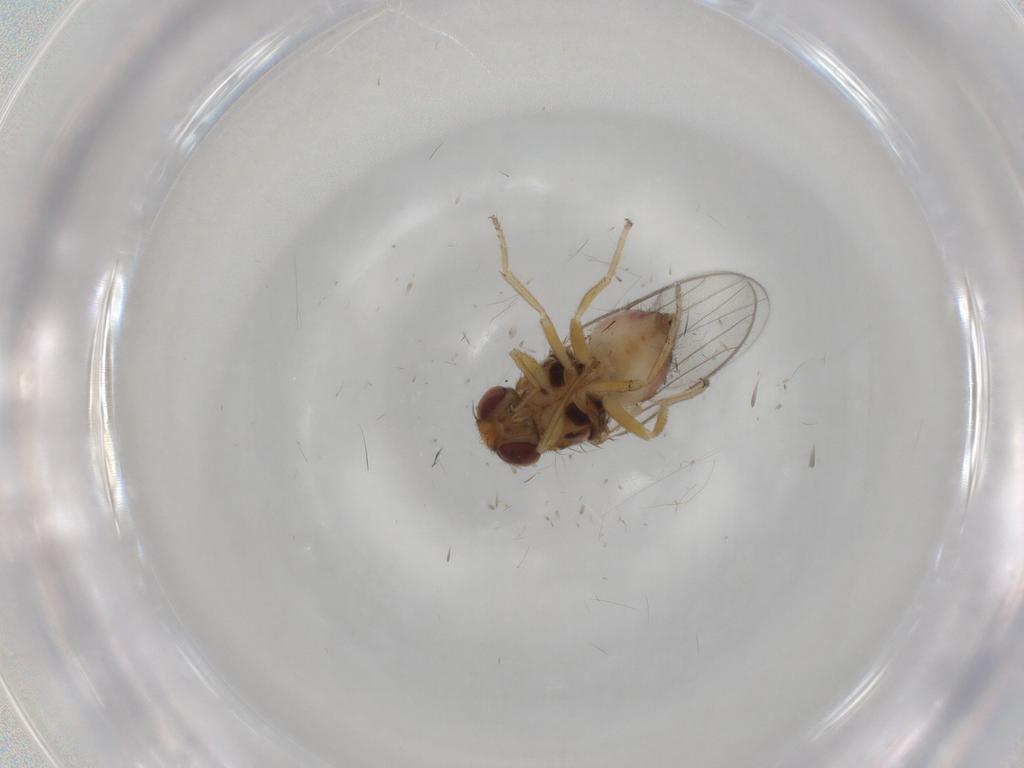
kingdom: Animalia
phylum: Arthropoda
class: Insecta
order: Diptera
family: Chloropidae
